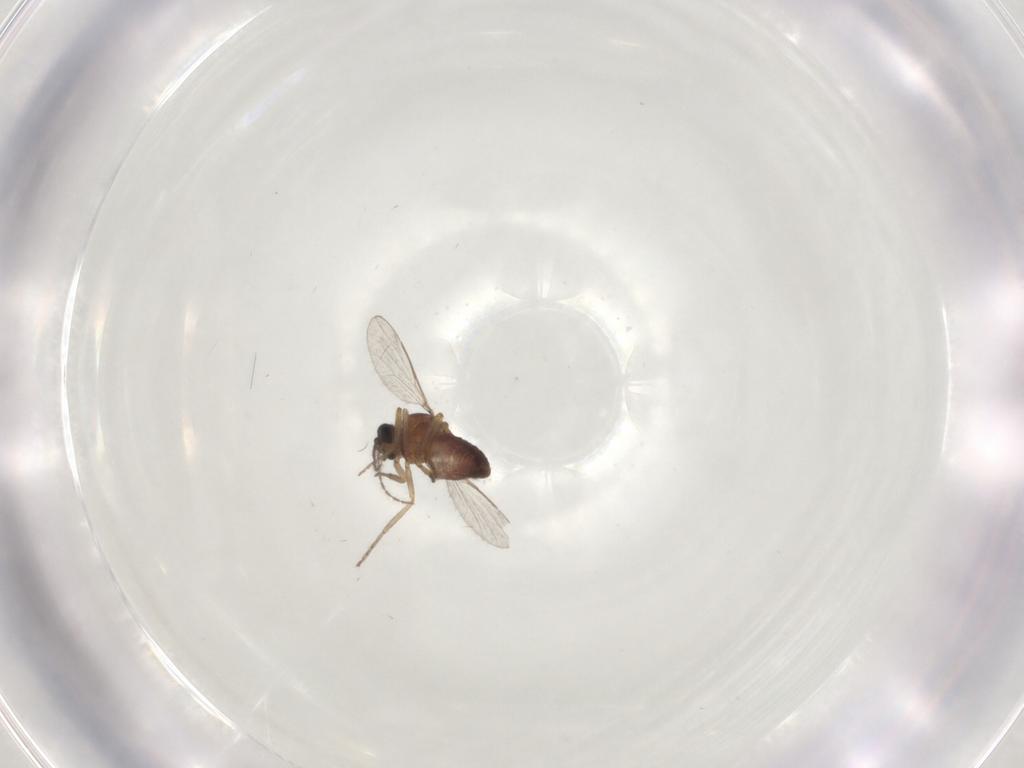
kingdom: Animalia
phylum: Arthropoda
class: Insecta
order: Diptera
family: Ceratopogonidae
